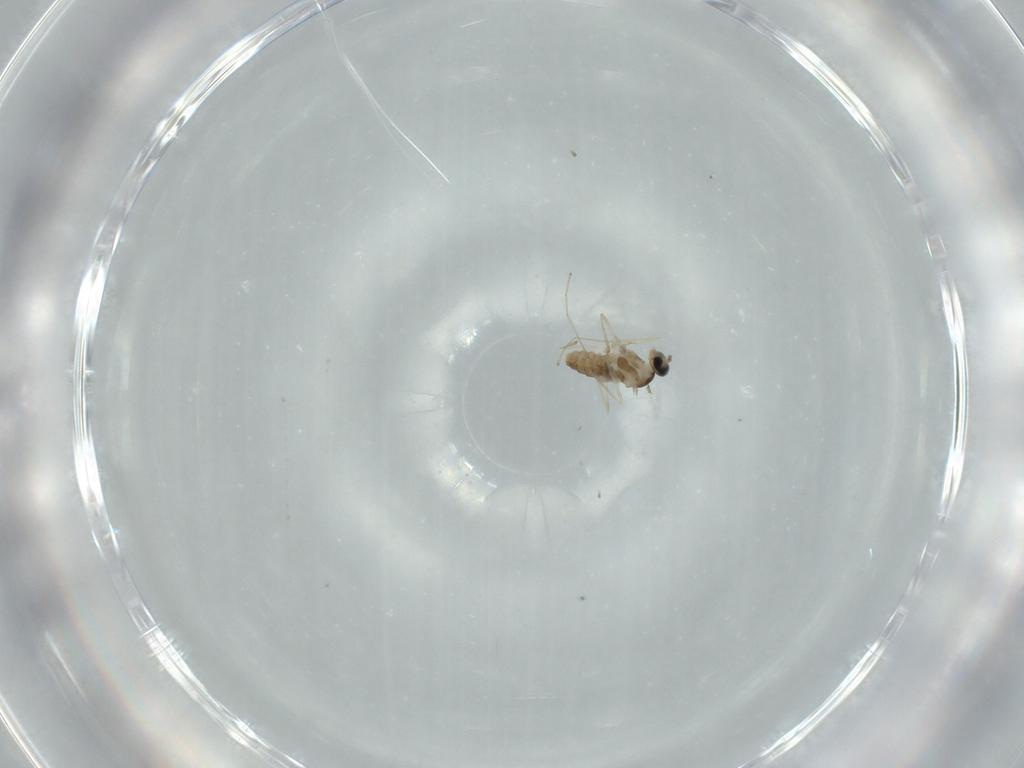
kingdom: Animalia
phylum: Arthropoda
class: Insecta
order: Diptera
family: Cecidomyiidae
